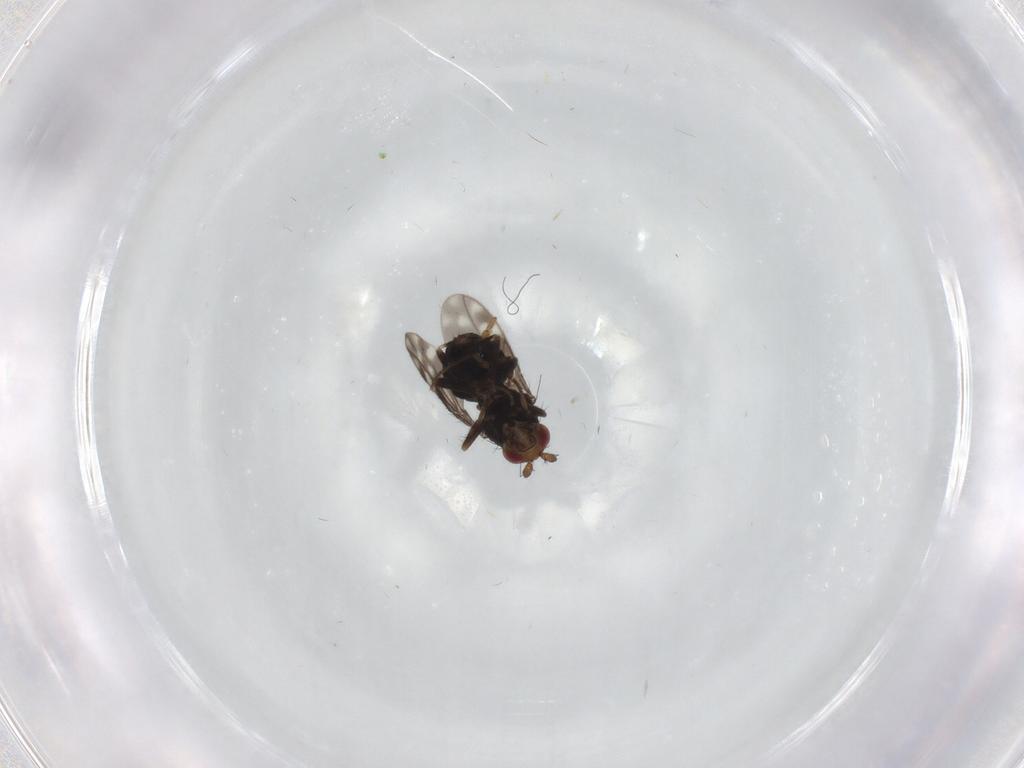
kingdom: Animalia
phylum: Arthropoda
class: Insecta
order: Diptera
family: Sphaeroceridae
